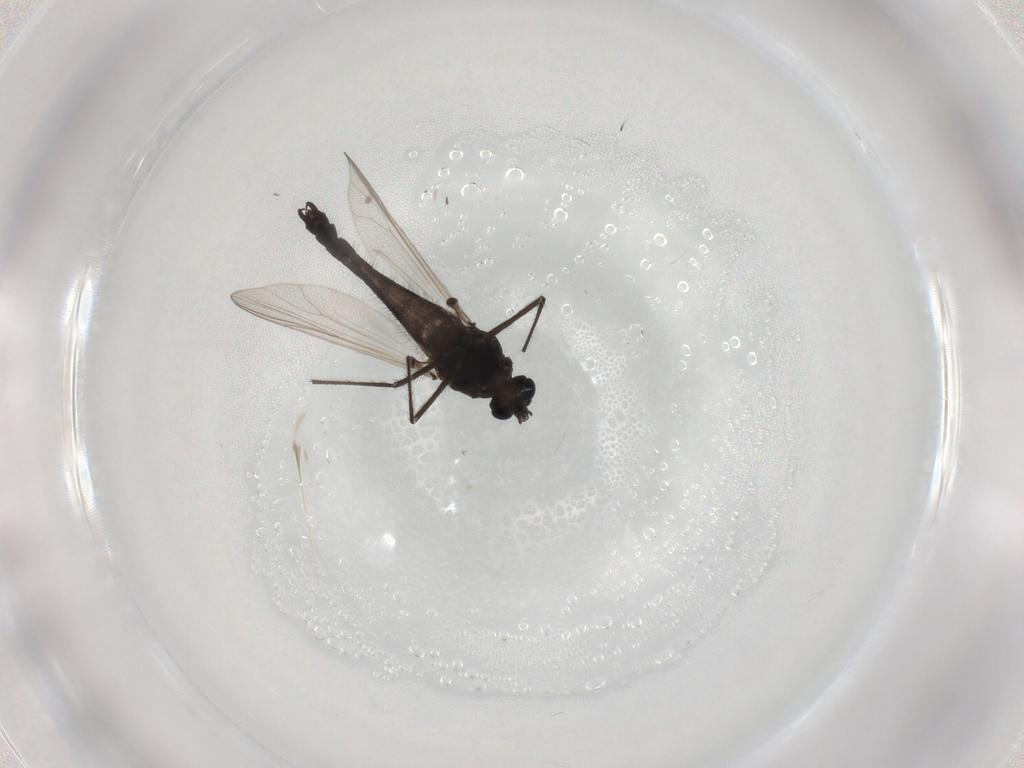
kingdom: Animalia
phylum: Arthropoda
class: Insecta
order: Diptera
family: Chironomidae
